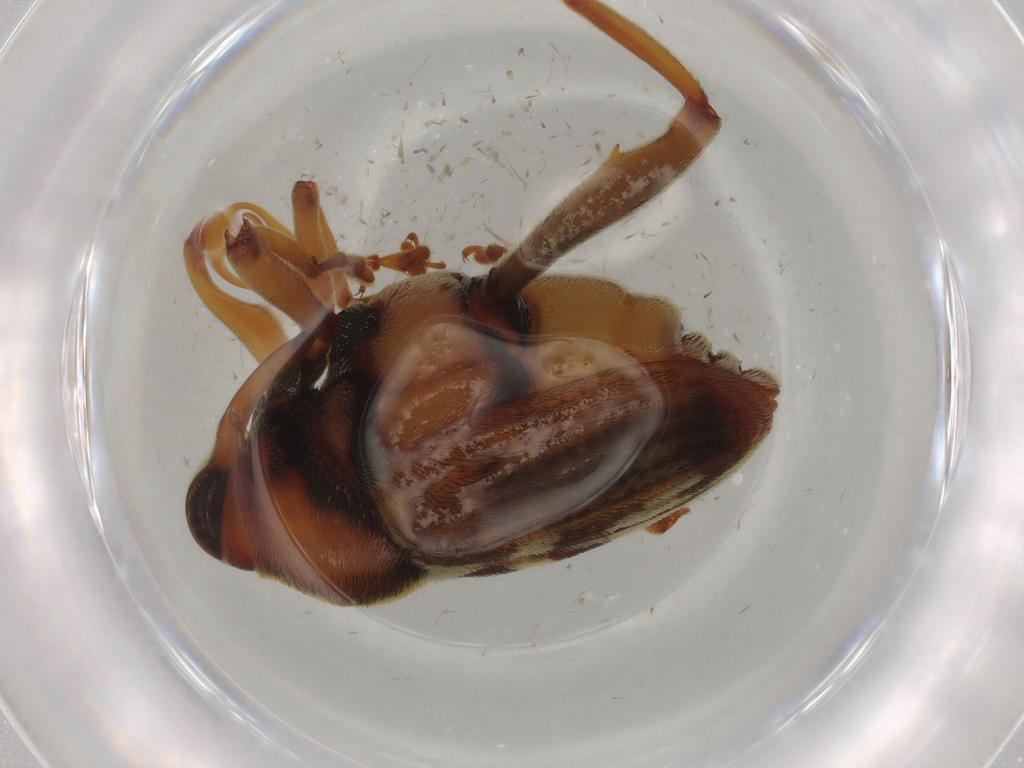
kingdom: Animalia
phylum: Arthropoda
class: Insecta
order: Coleoptera
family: Curculionidae
